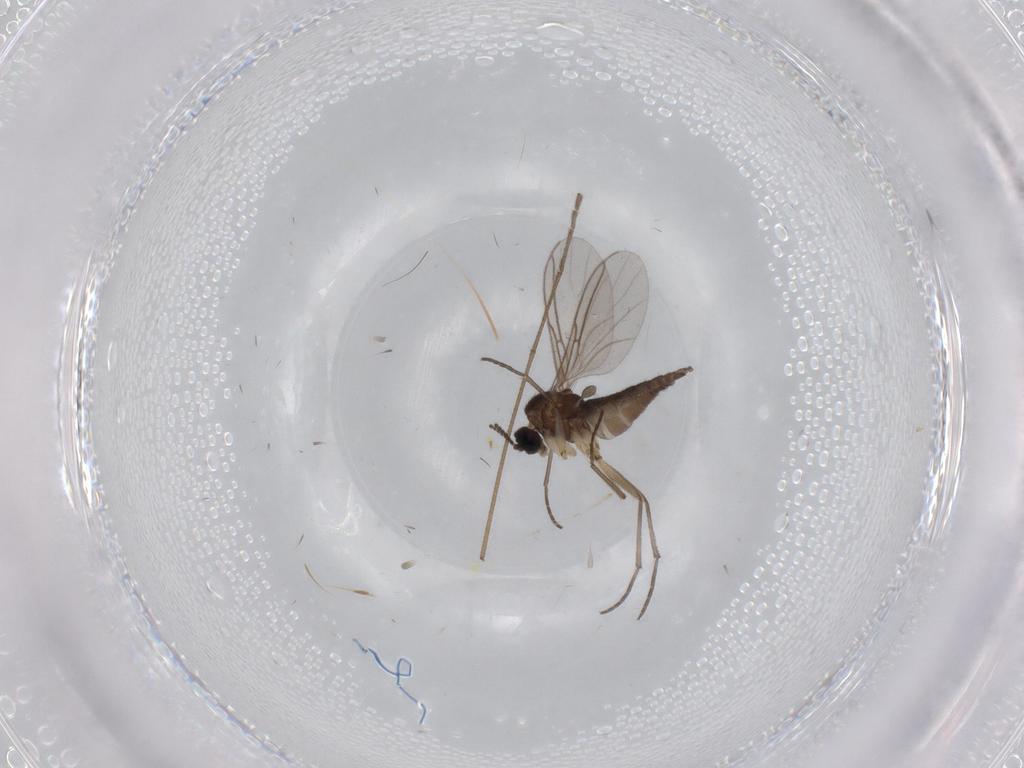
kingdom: Animalia
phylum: Arthropoda
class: Insecta
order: Diptera
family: Sciaridae
